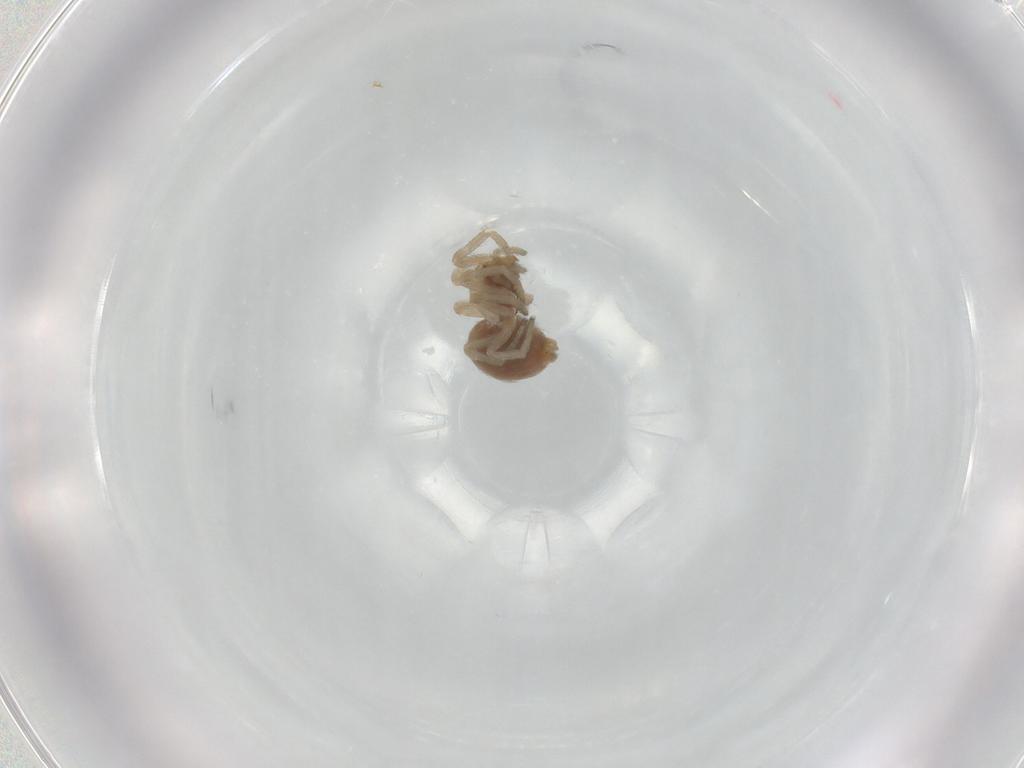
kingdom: Animalia
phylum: Arthropoda
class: Arachnida
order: Araneae
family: Dictynidae
